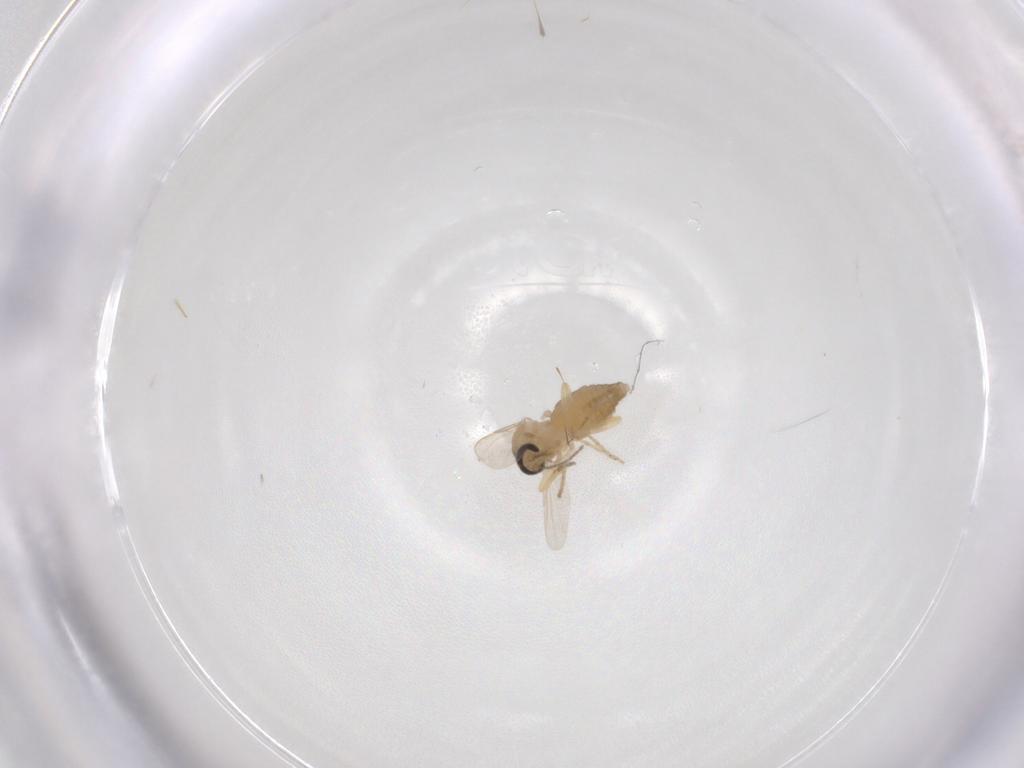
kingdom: Animalia
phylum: Arthropoda
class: Insecta
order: Diptera
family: Ceratopogonidae
